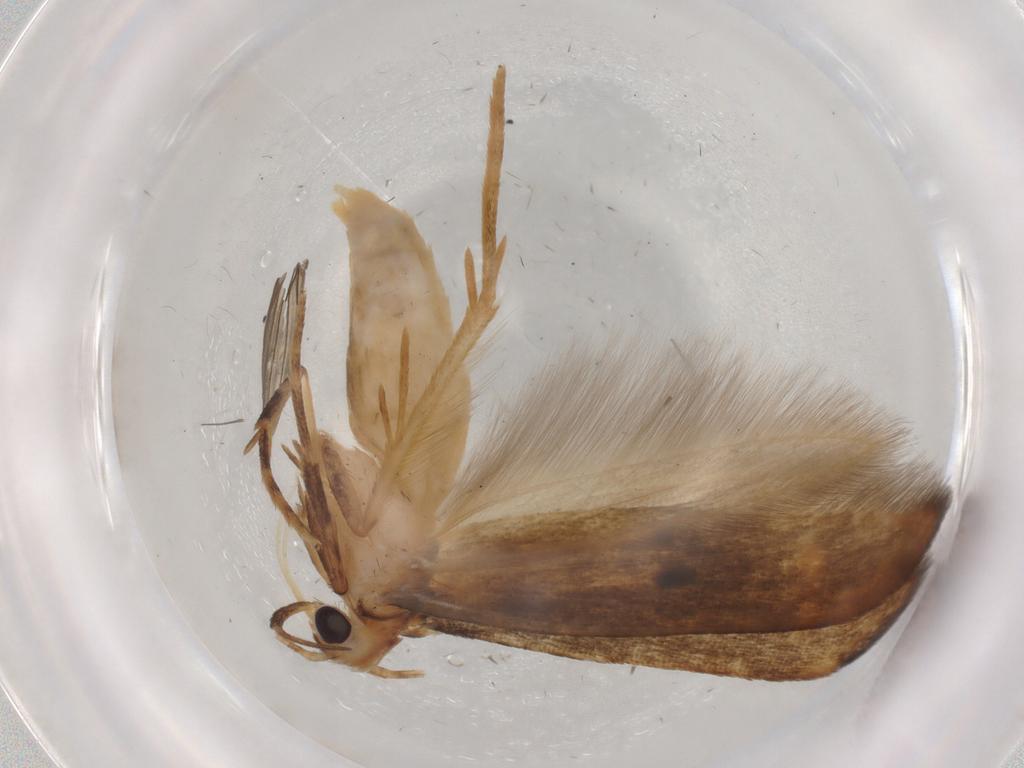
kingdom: Animalia
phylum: Arthropoda
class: Insecta
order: Lepidoptera
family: Nolidae
